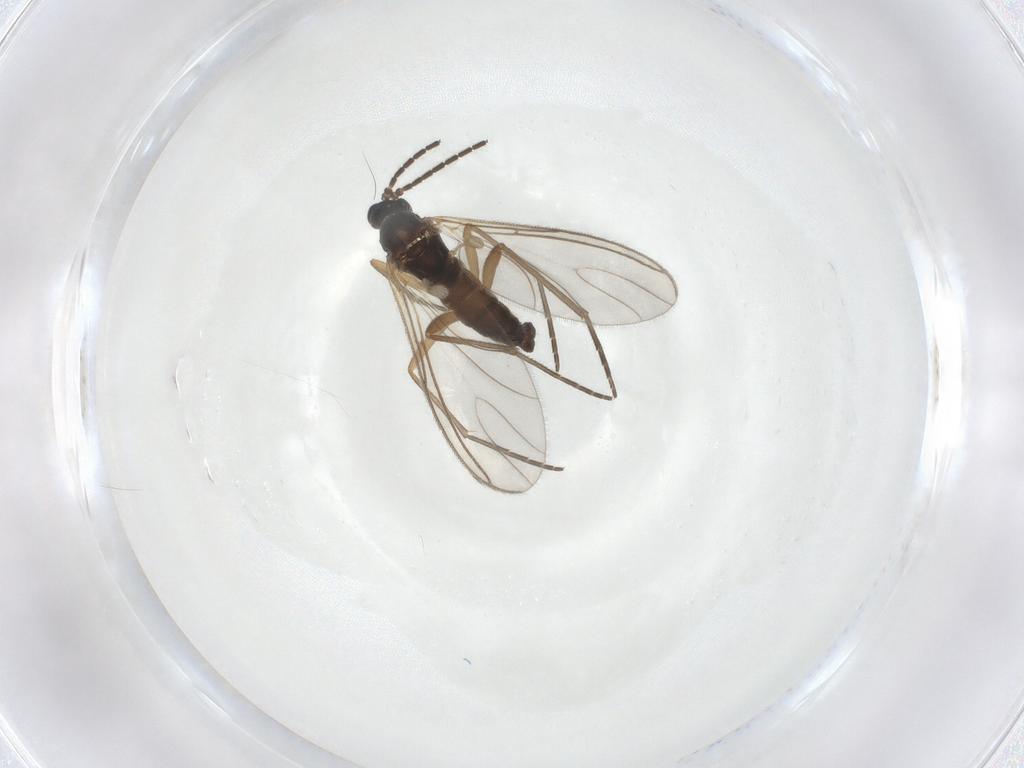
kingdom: Animalia
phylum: Arthropoda
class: Insecta
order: Diptera
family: Sciaridae
